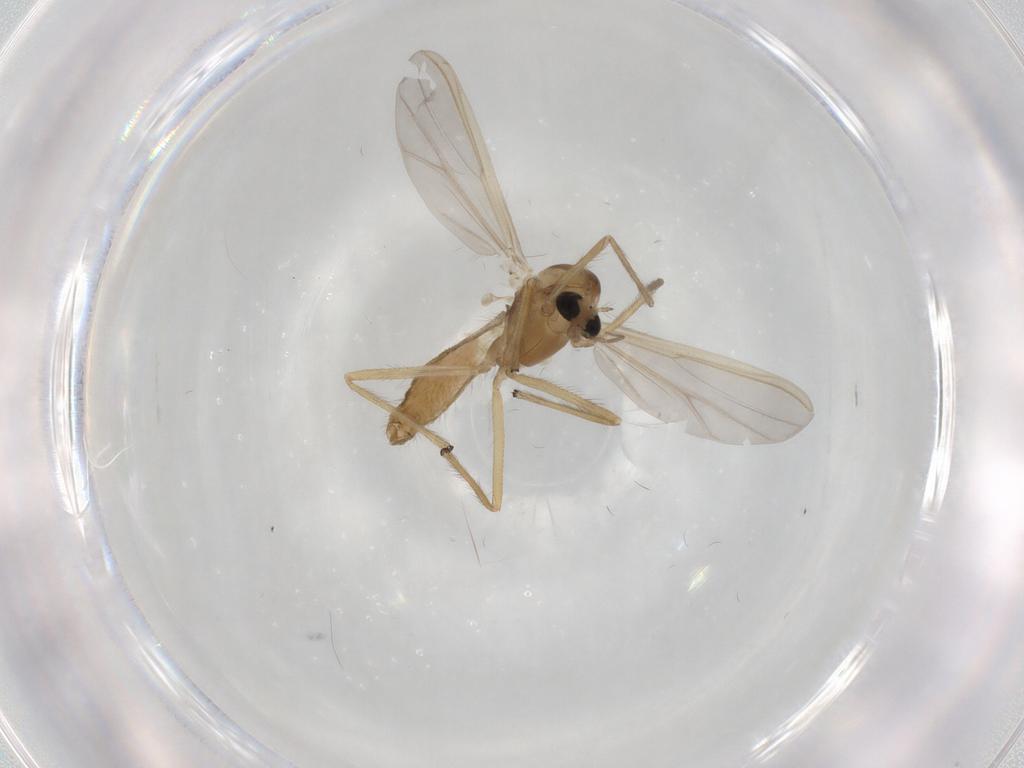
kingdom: Animalia
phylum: Arthropoda
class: Insecta
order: Diptera
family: Chironomidae
